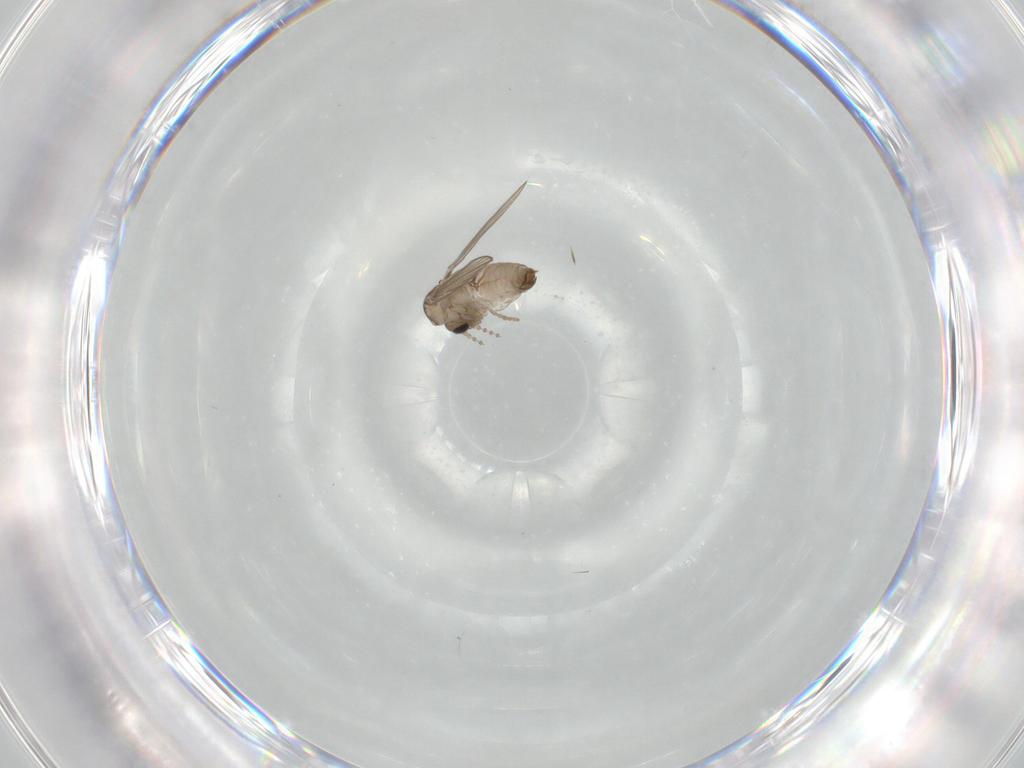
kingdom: Animalia
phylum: Arthropoda
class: Insecta
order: Diptera
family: Psychodidae
